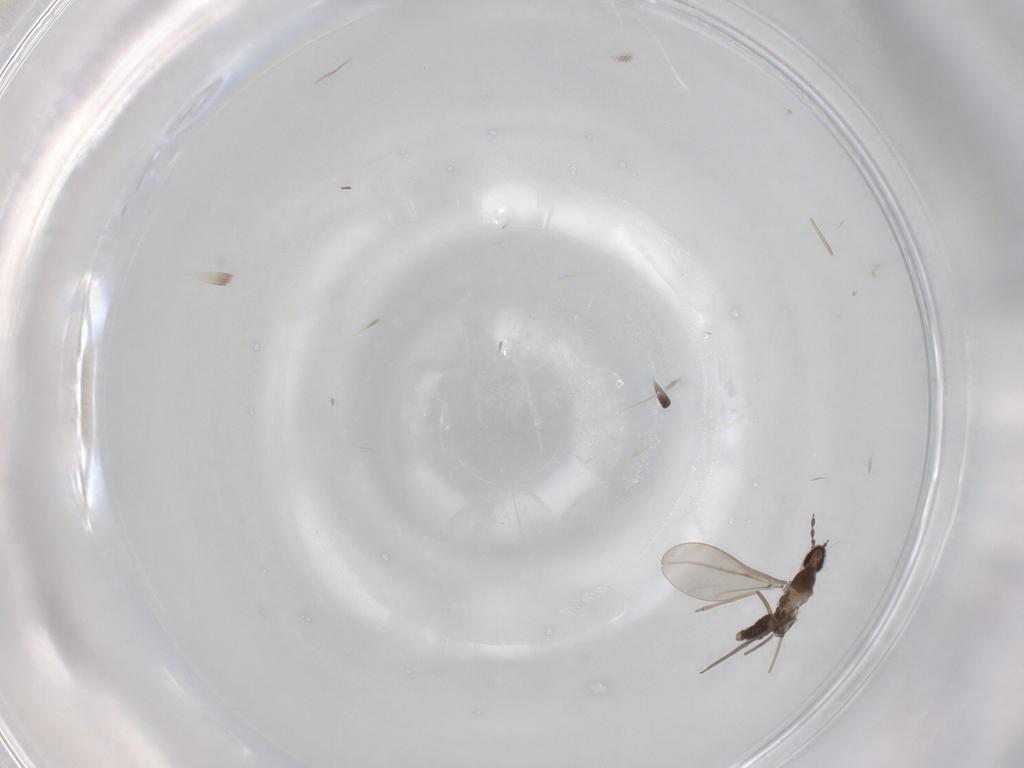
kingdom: Animalia
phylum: Arthropoda
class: Insecta
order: Diptera
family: Cecidomyiidae
